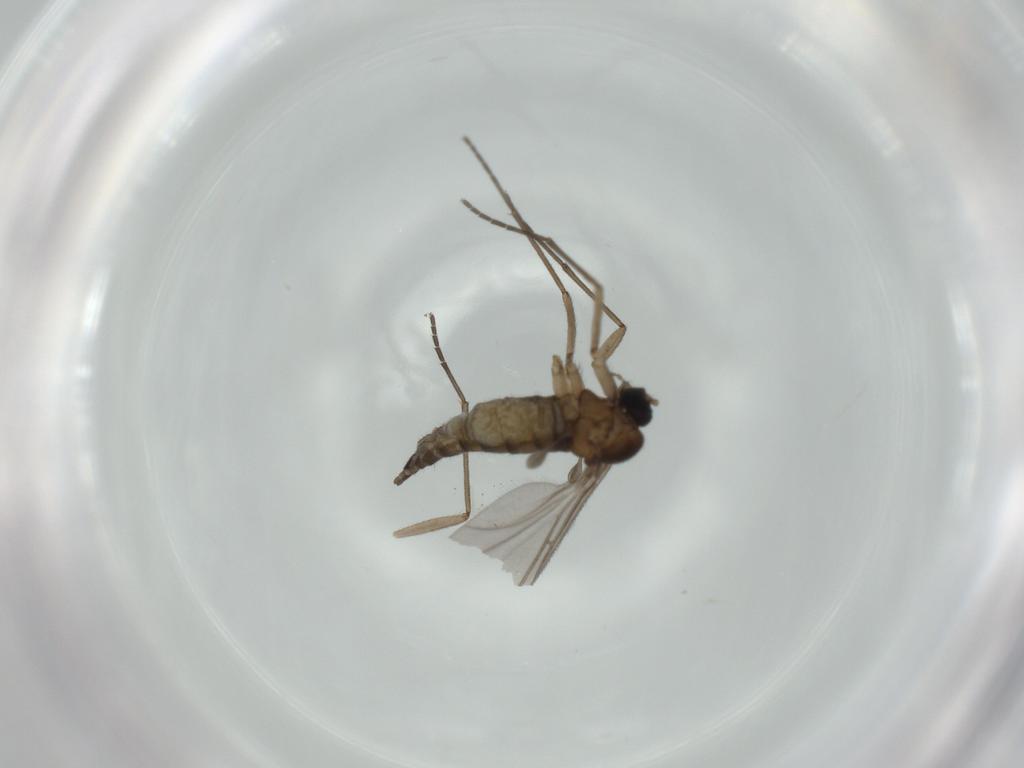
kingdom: Animalia
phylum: Arthropoda
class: Insecta
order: Diptera
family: Sciaridae
